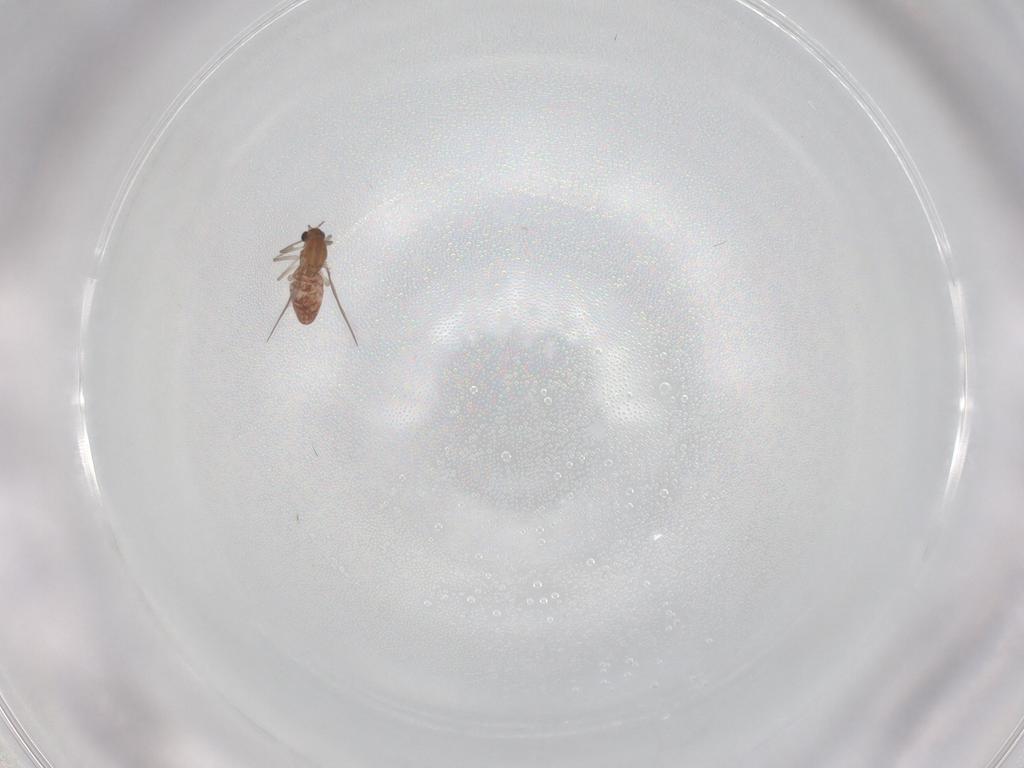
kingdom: Animalia
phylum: Arthropoda
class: Insecta
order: Diptera
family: Chironomidae
